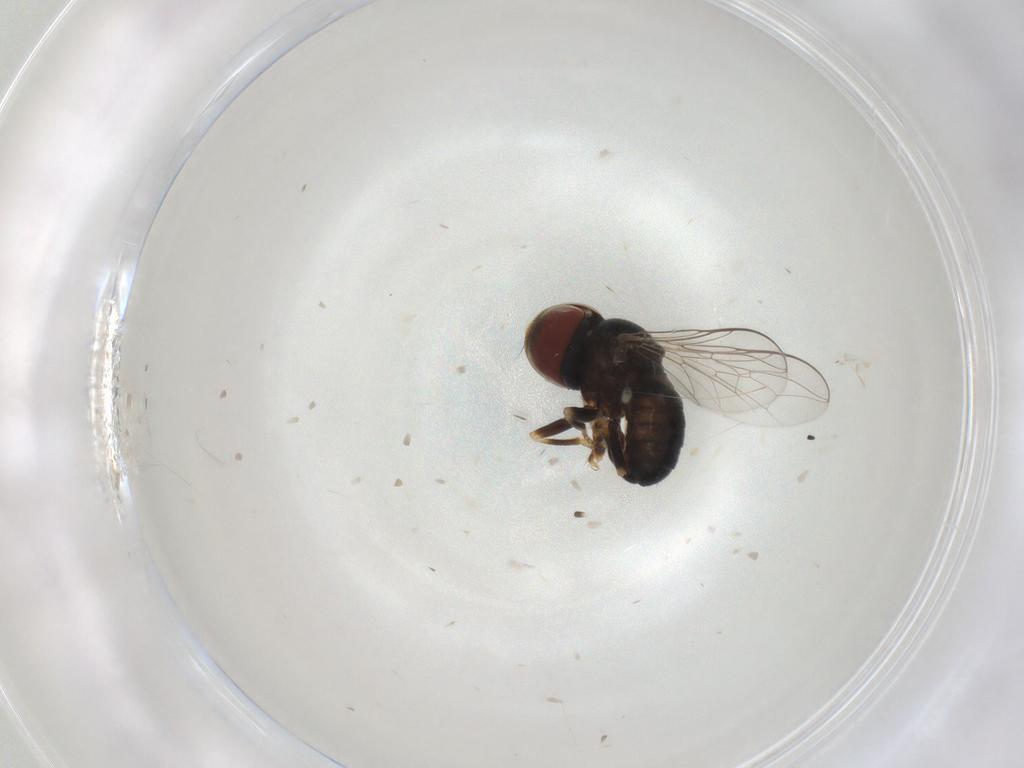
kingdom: Animalia
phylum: Arthropoda
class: Insecta
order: Diptera
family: Pipunculidae
